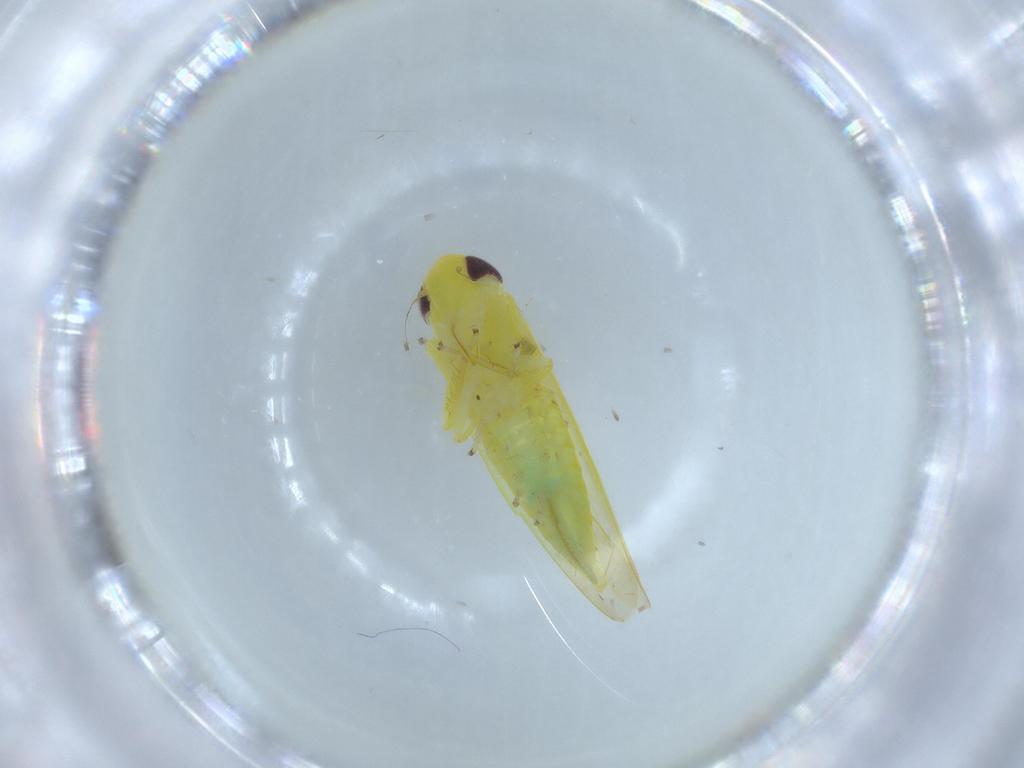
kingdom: Animalia
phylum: Arthropoda
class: Insecta
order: Hemiptera
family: Cicadellidae
